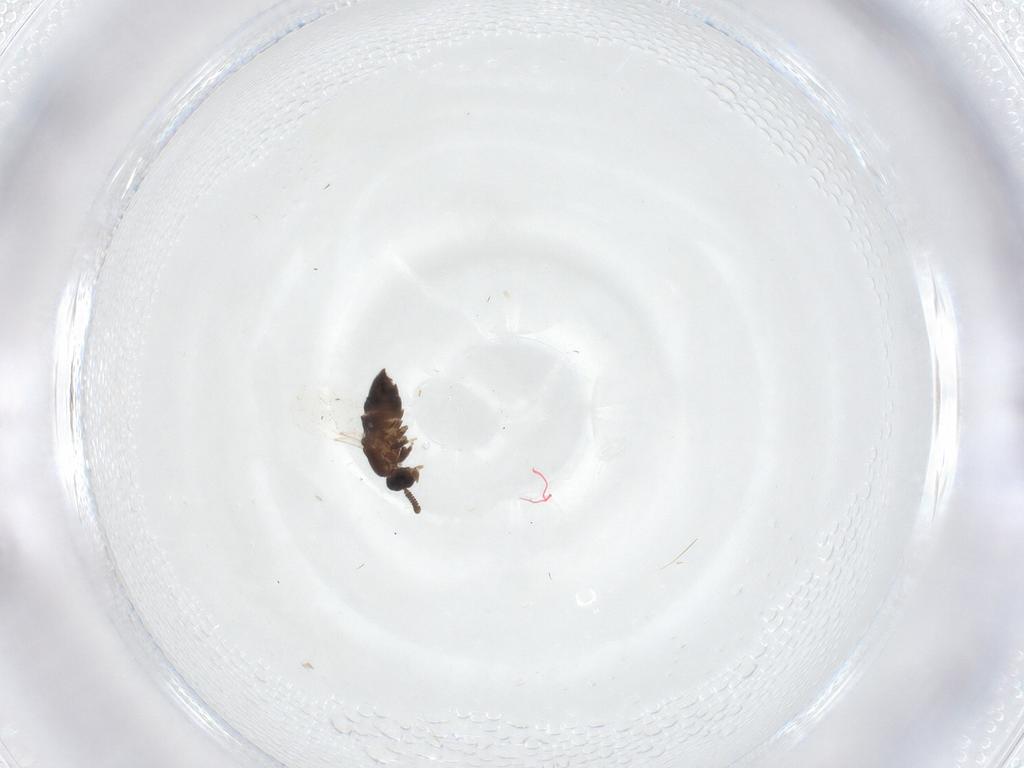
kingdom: Animalia
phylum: Arthropoda
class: Insecta
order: Diptera
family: Scatopsidae
